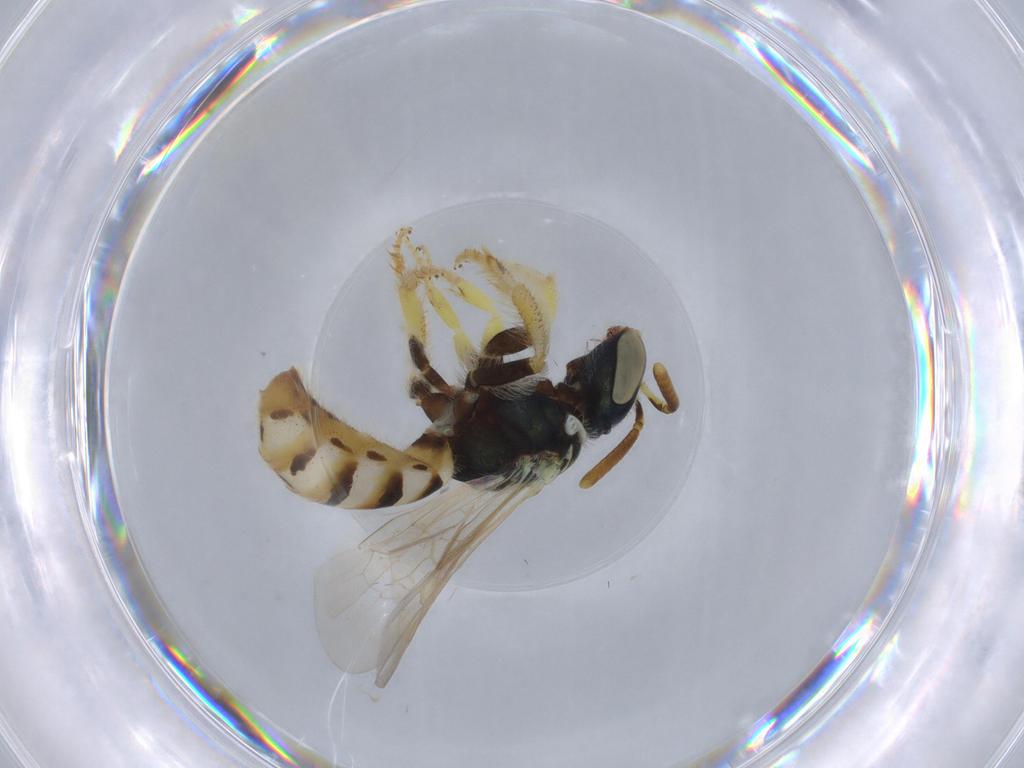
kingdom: Animalia
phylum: Arthropoda
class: Insecta
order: Hymenoptera
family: Halictidae
